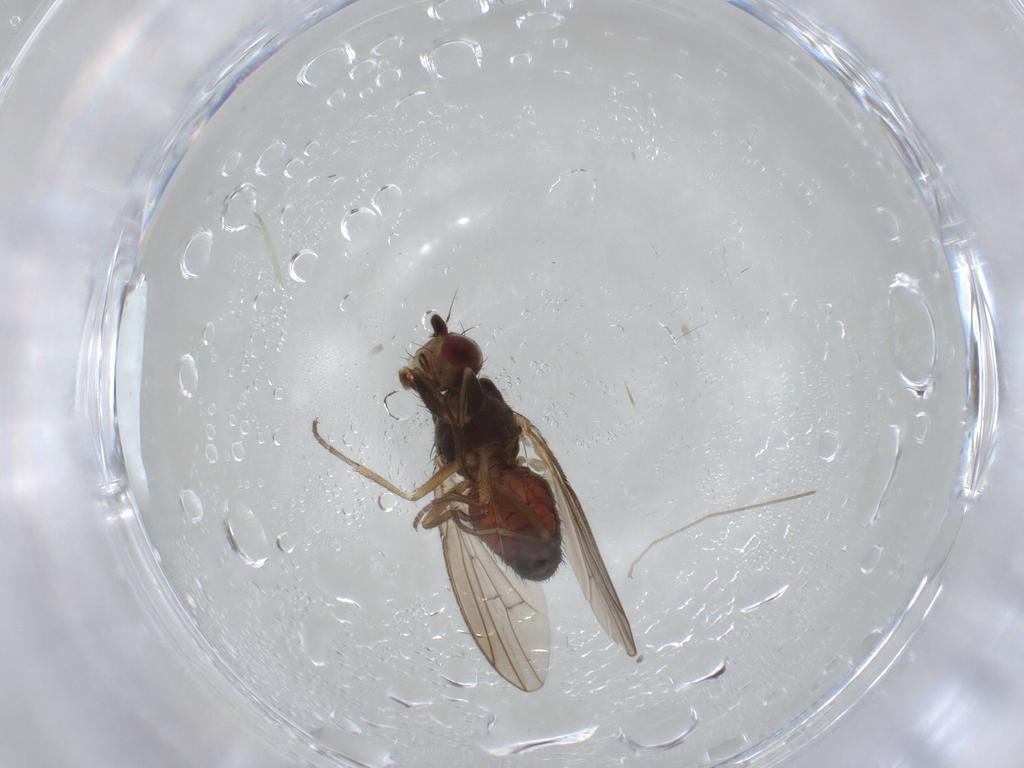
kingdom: Animalia
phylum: Arthropoda
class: Insecta
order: Diptera
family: Heleomyzidae
